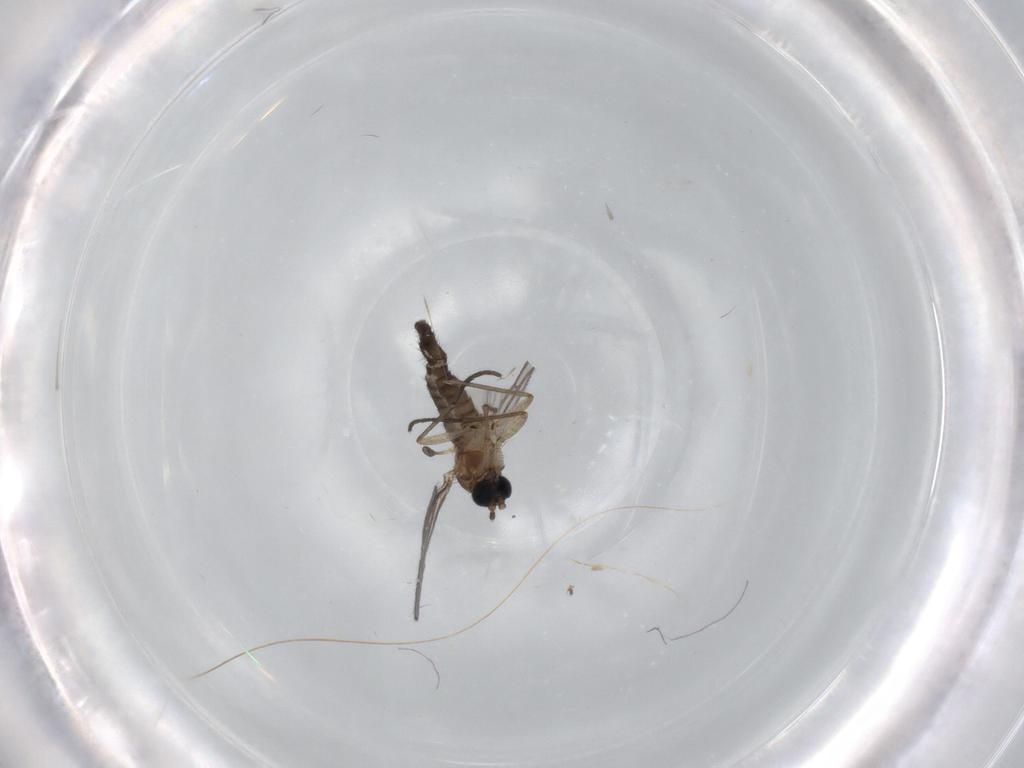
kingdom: Animalia
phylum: Arthropoda
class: Insecta
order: Diptera
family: Sciaridae
